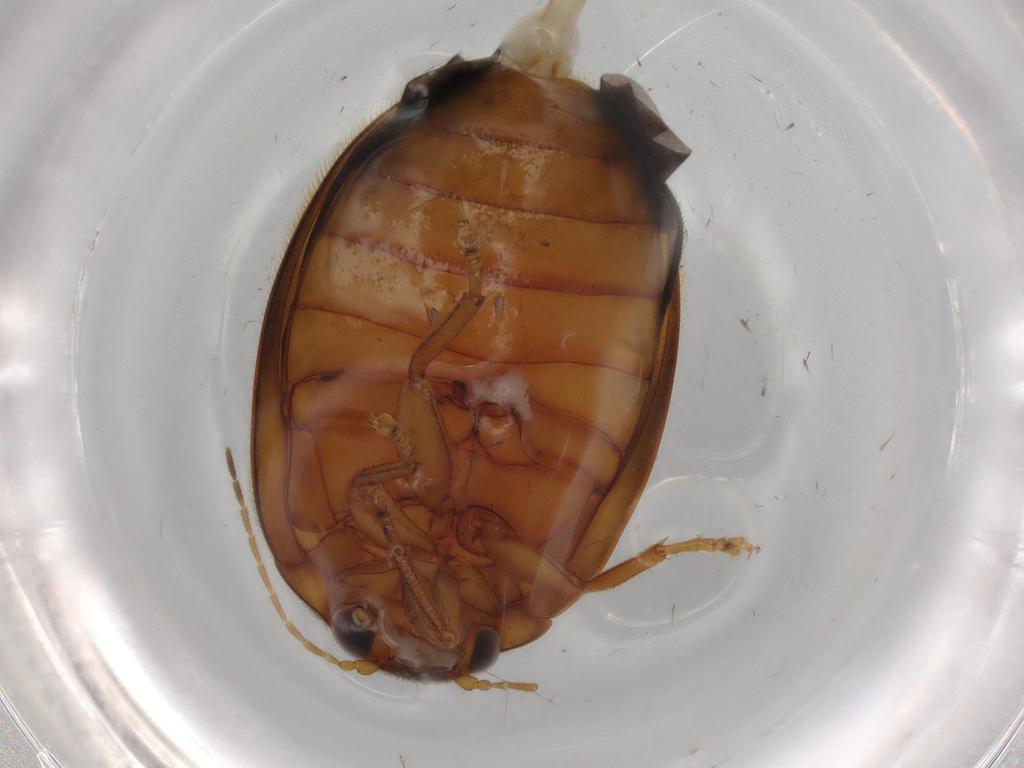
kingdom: Animalia
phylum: Arthropoda
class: Insecta
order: Coleoptera
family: Scirtidae
